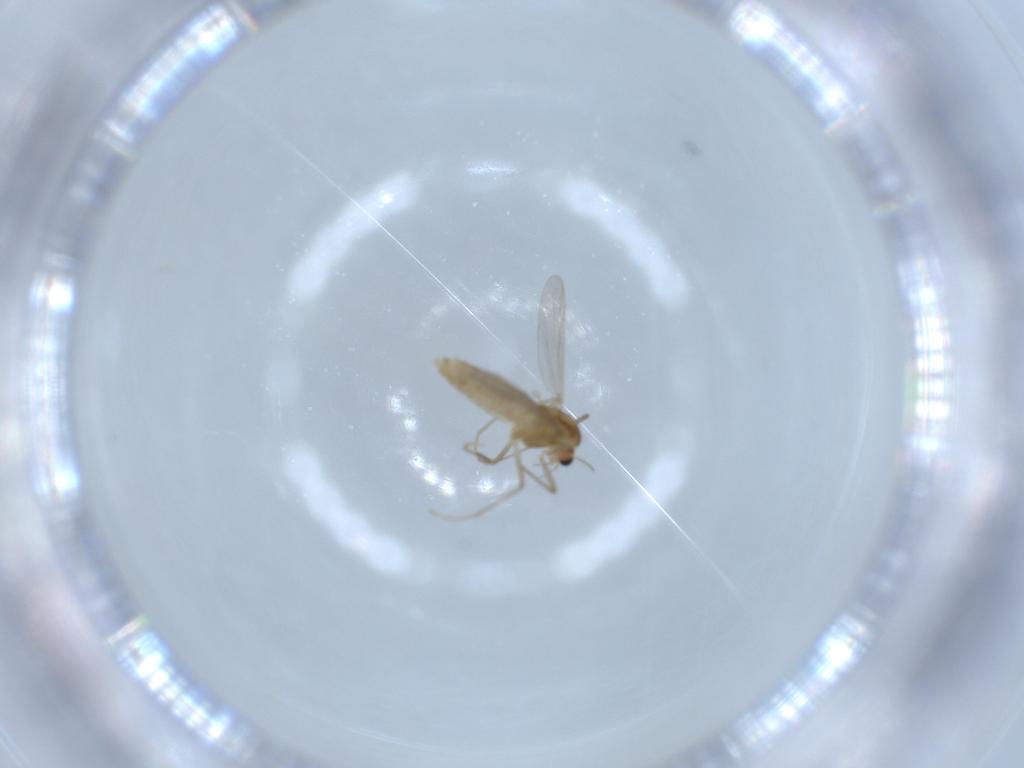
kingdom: Animalia
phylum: Arthropoda
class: Insecta
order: Diptera
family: Chironomidae
